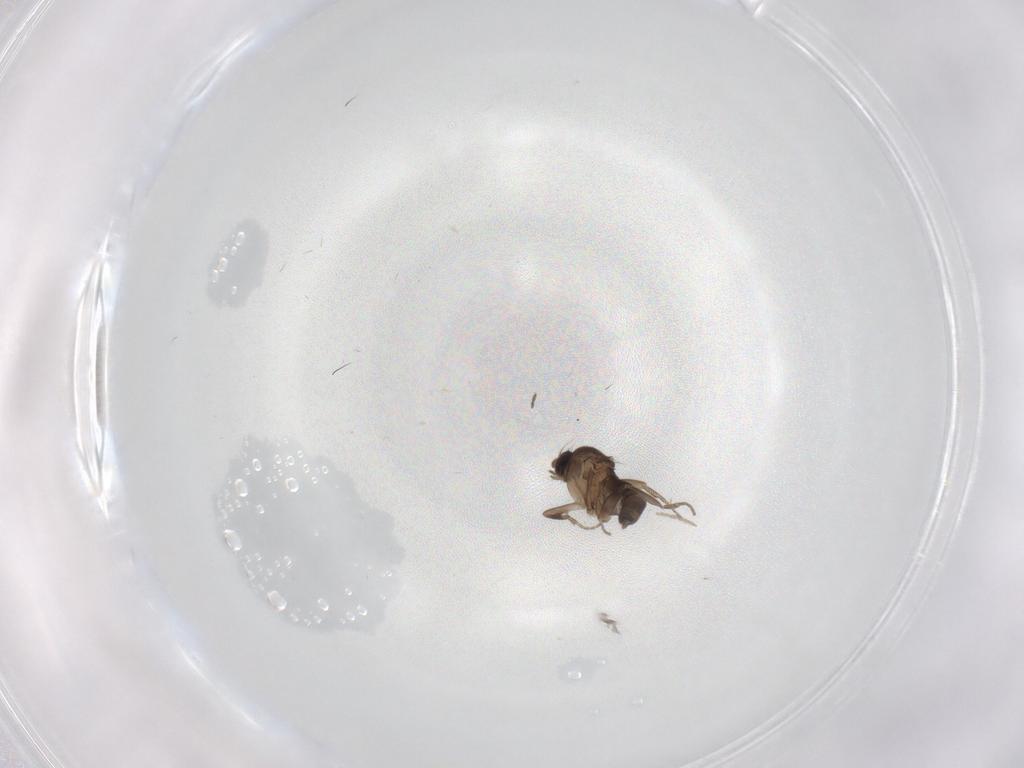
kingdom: Animalia
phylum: Arthropoda
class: Insecta
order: Diptera
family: Phoridae
